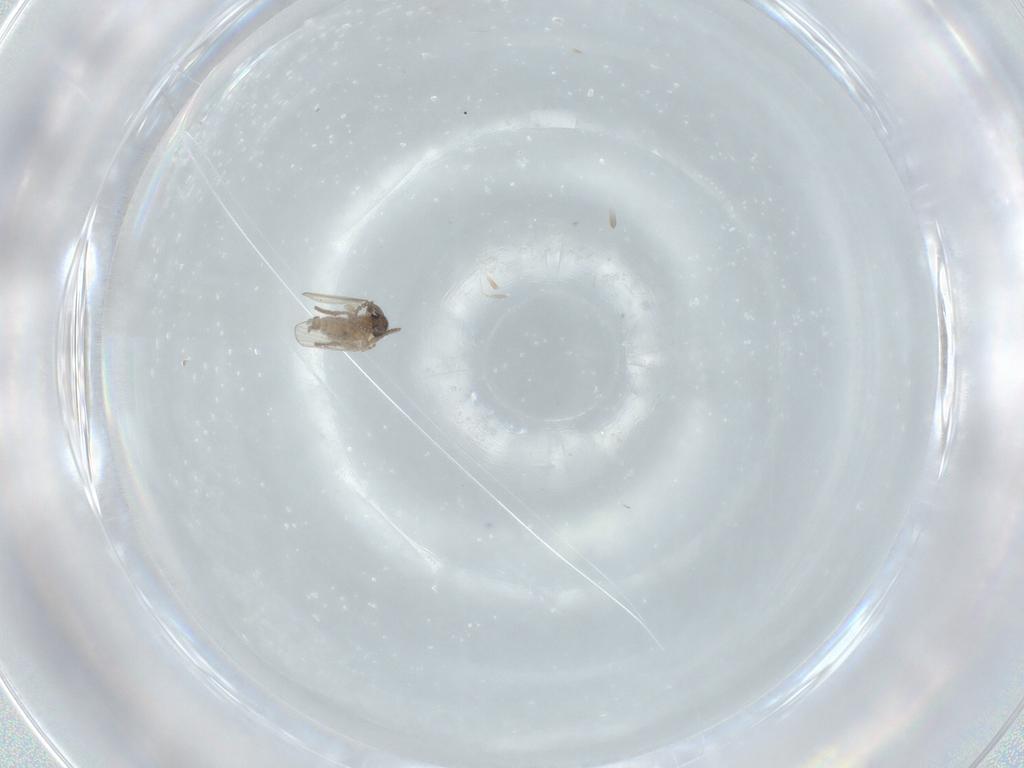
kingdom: Animalia
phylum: Arthropoda
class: Insecta
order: Diptera
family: Psychodidae
